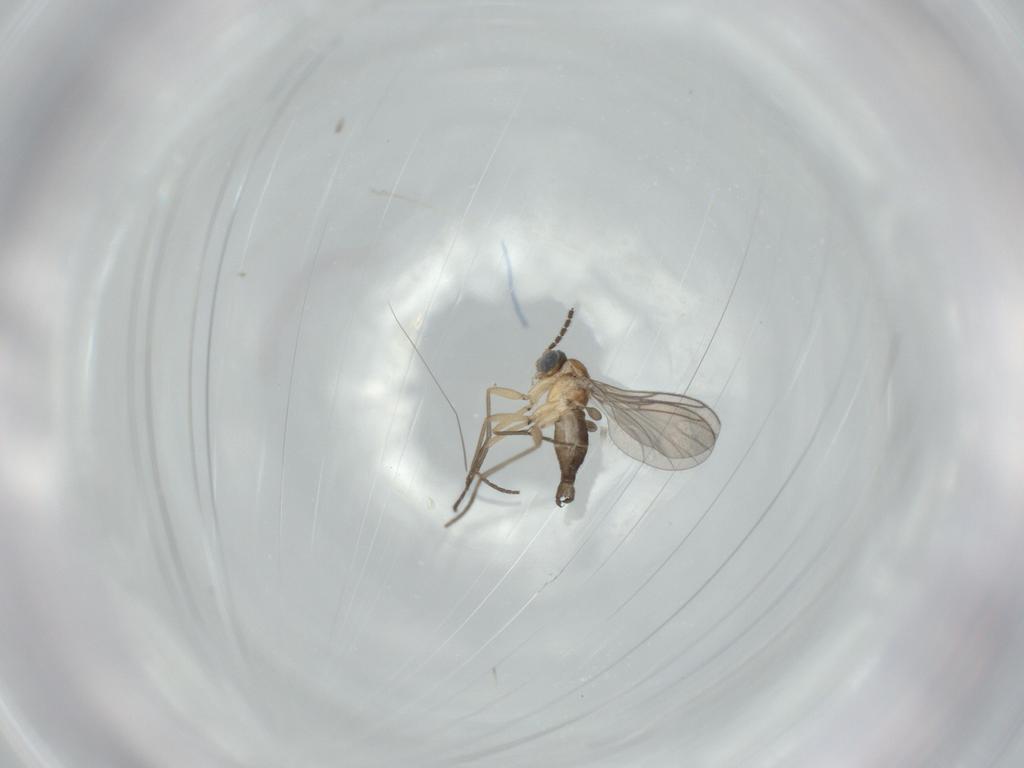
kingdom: Animalia
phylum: Arthropoda
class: Insecta
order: Diptera
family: Sciaridae
